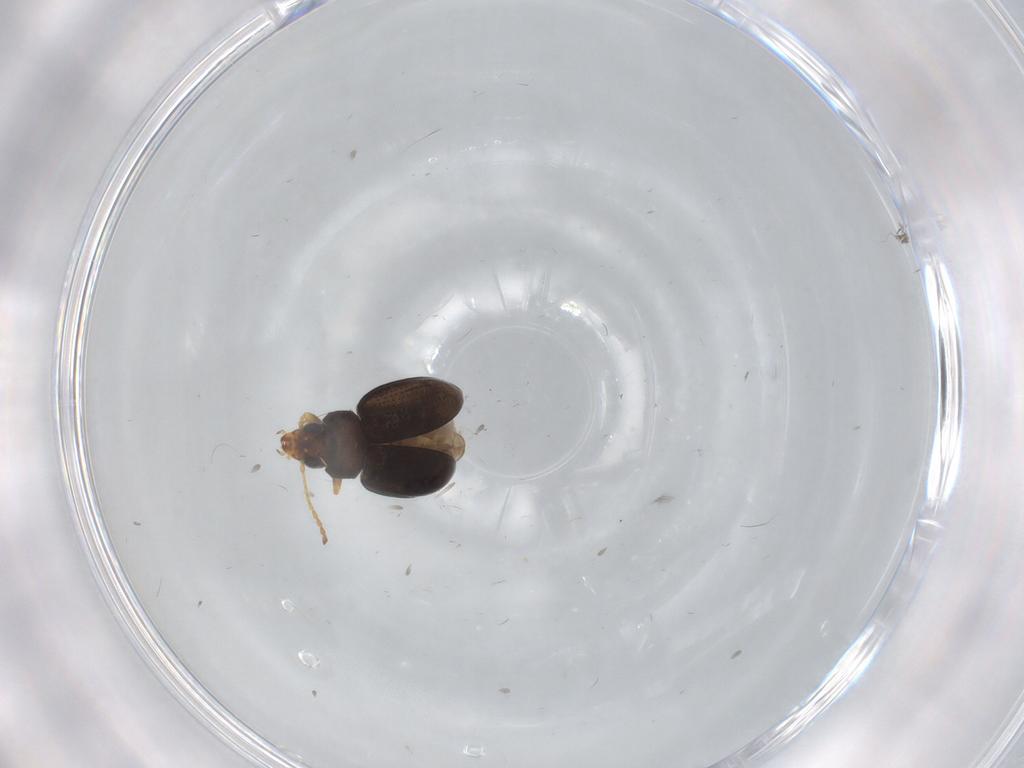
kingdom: Animalia
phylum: Arthropoda
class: Insecta
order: Coleoptera
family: Chrysomelidae
